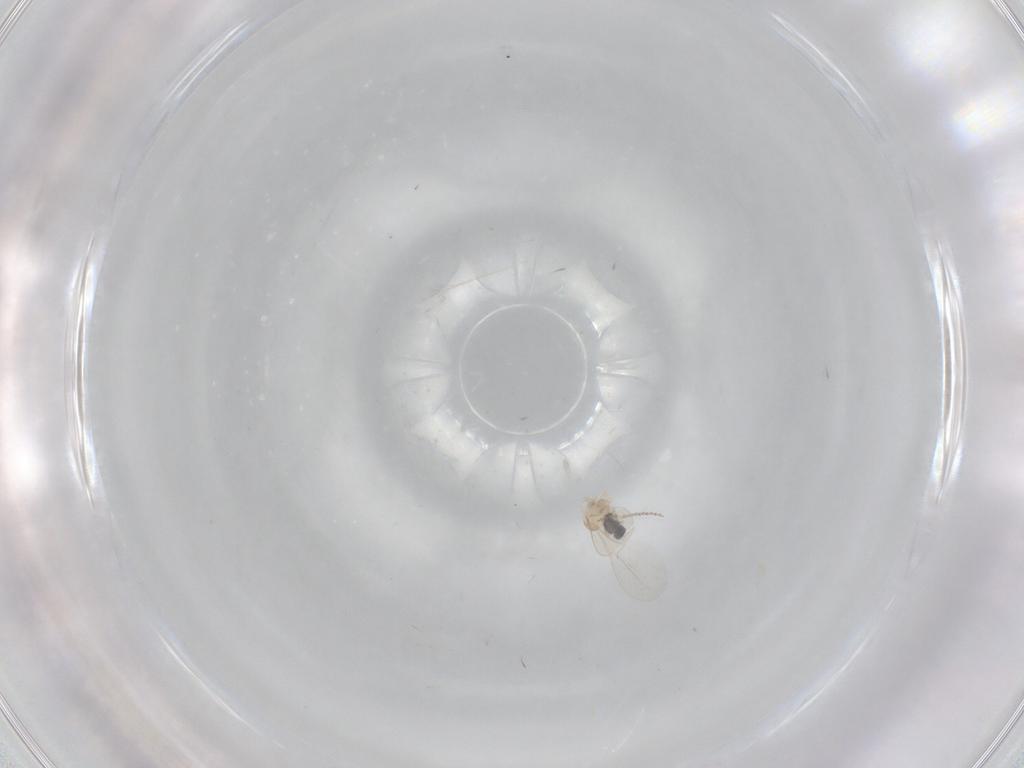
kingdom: Animalia
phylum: Arthropoda
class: Insecta
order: Diptera
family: Cecidomyiidae
